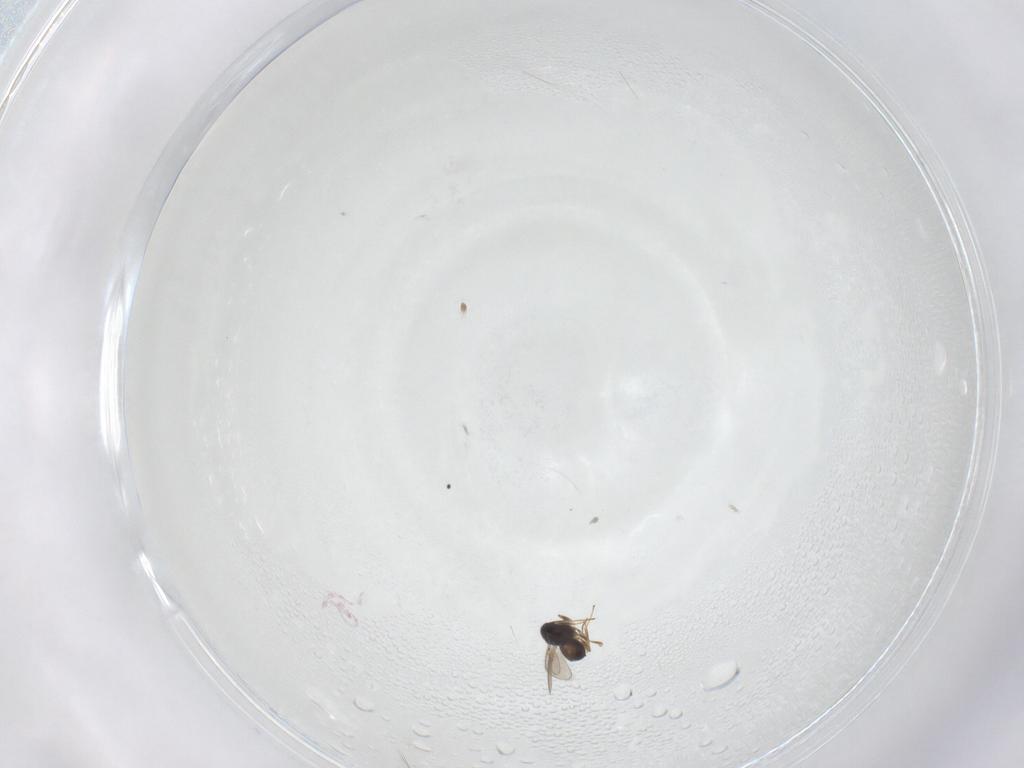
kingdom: Animalia
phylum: Arthropoda
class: Insecta
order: Hymenoptera
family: Scelionidae
